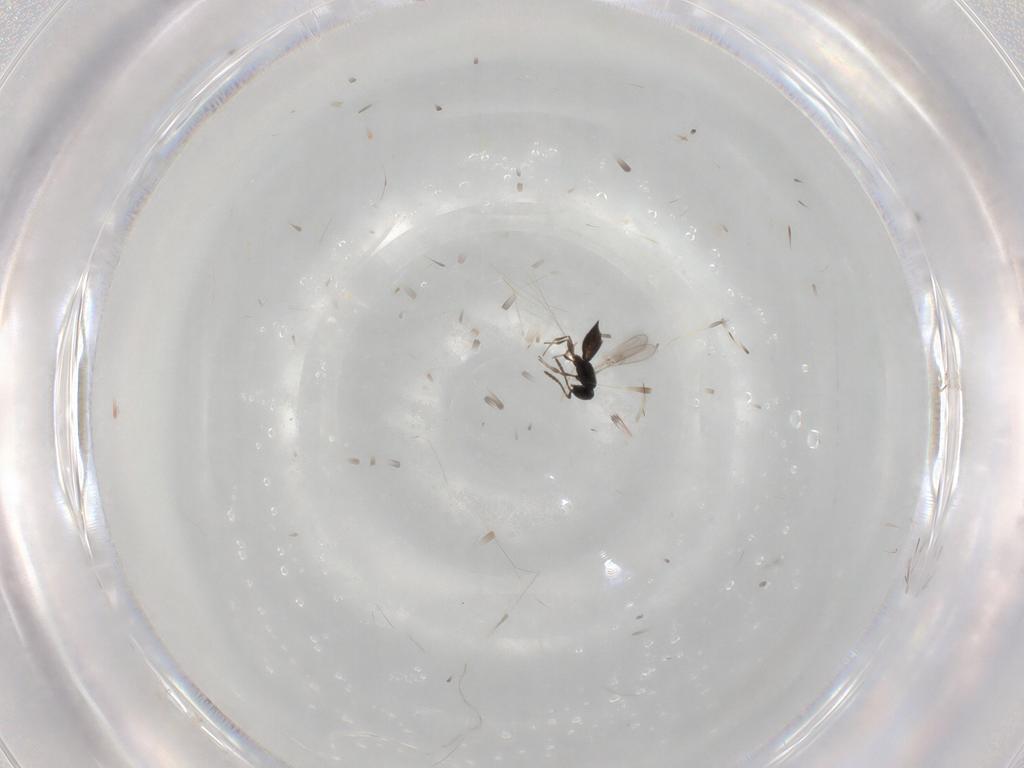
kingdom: Animalia
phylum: Arthropoda
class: Insecta
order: Hymenoptera
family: Scelionidae
